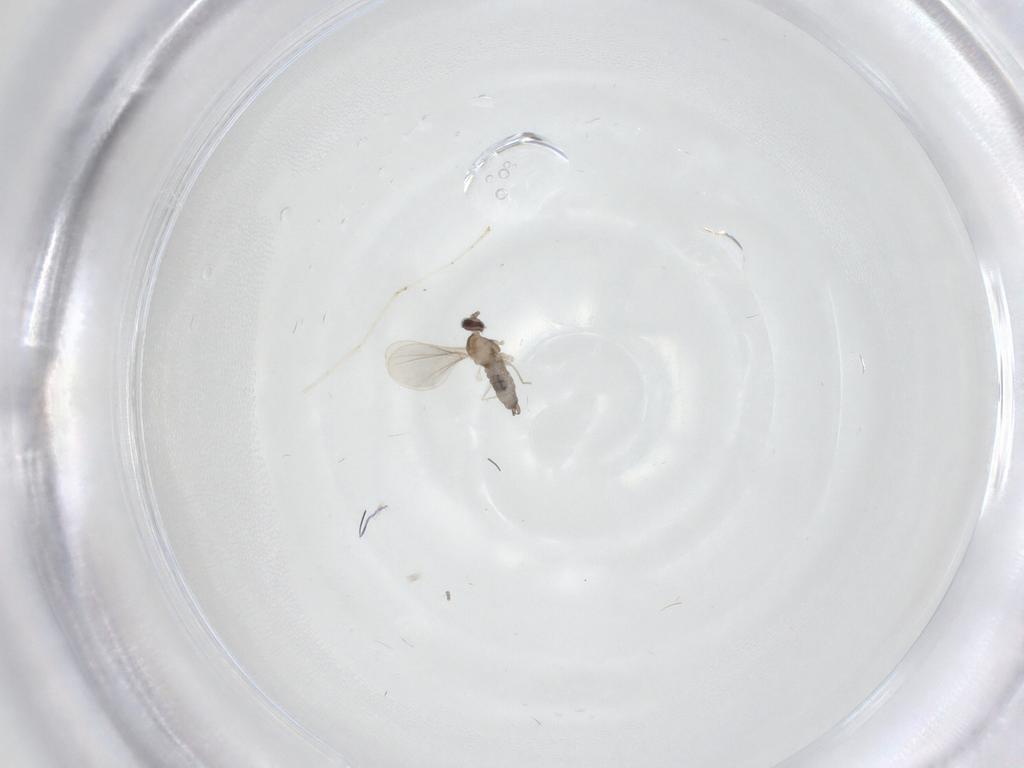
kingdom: Animalia
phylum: Arthropoda
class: Insecta
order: Diptera
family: Cecidomyiidae
